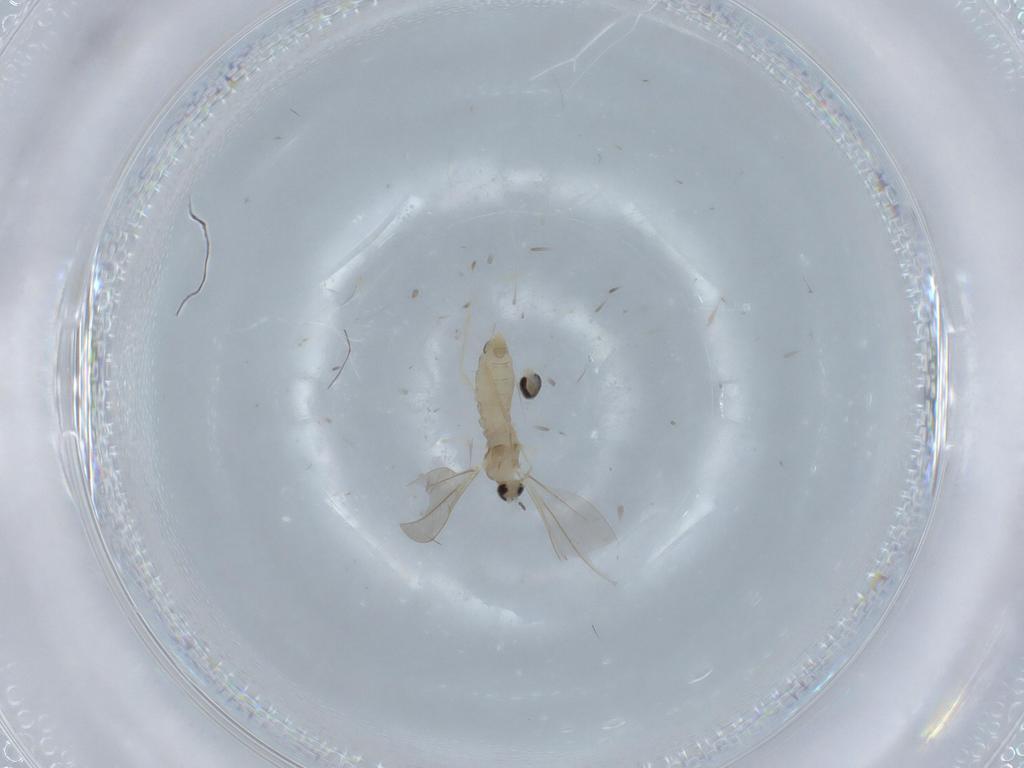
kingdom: Animalia
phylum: Arthropoda
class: Insecta
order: Diptera
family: Cecidomyiidae
